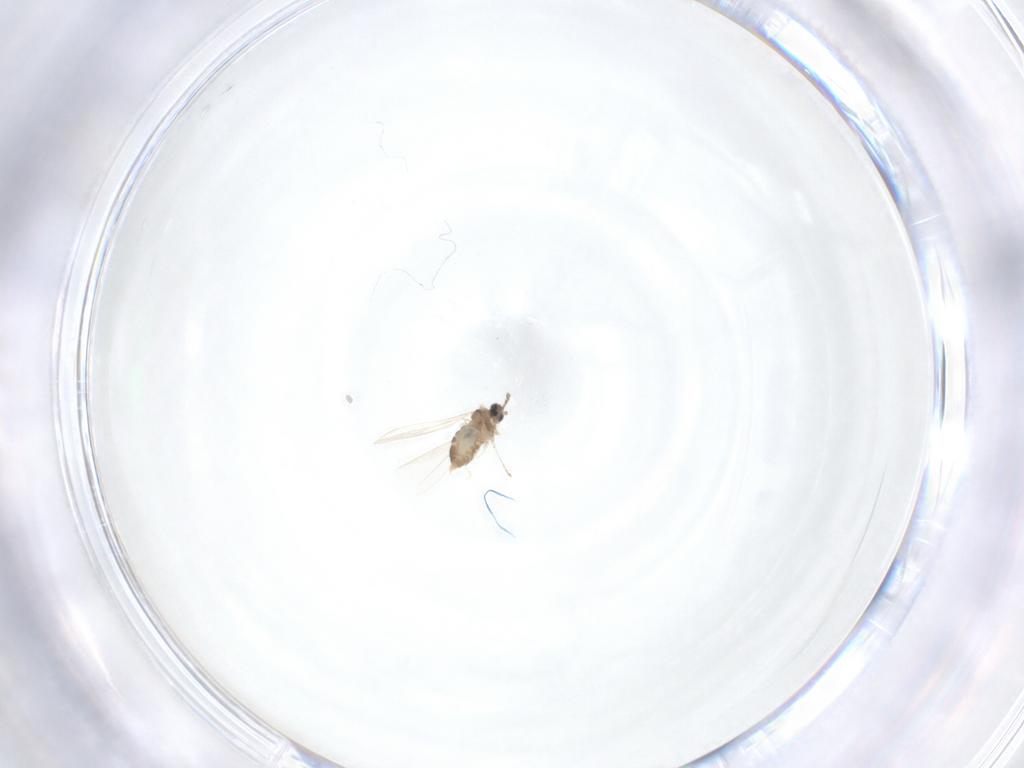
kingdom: Animalia
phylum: Arthropoda
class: Insecta
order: Diptera
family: Cecidomyiidae
